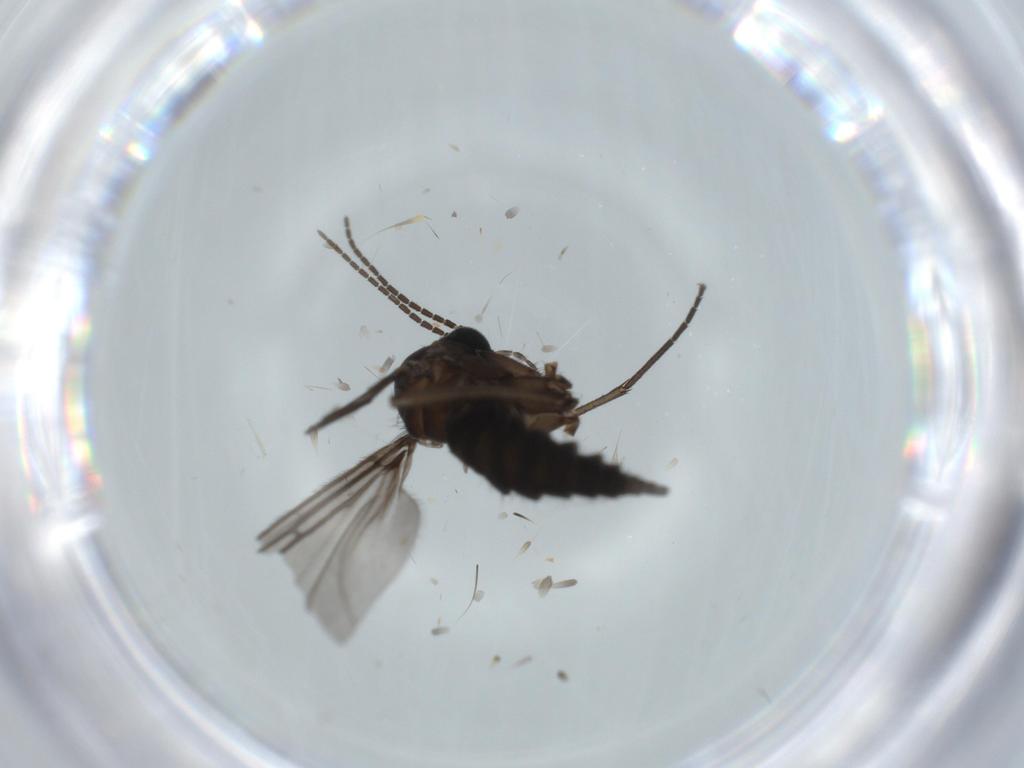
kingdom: Animalia
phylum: Arthropoda
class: Insecta
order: Diptera
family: Sciaridae
